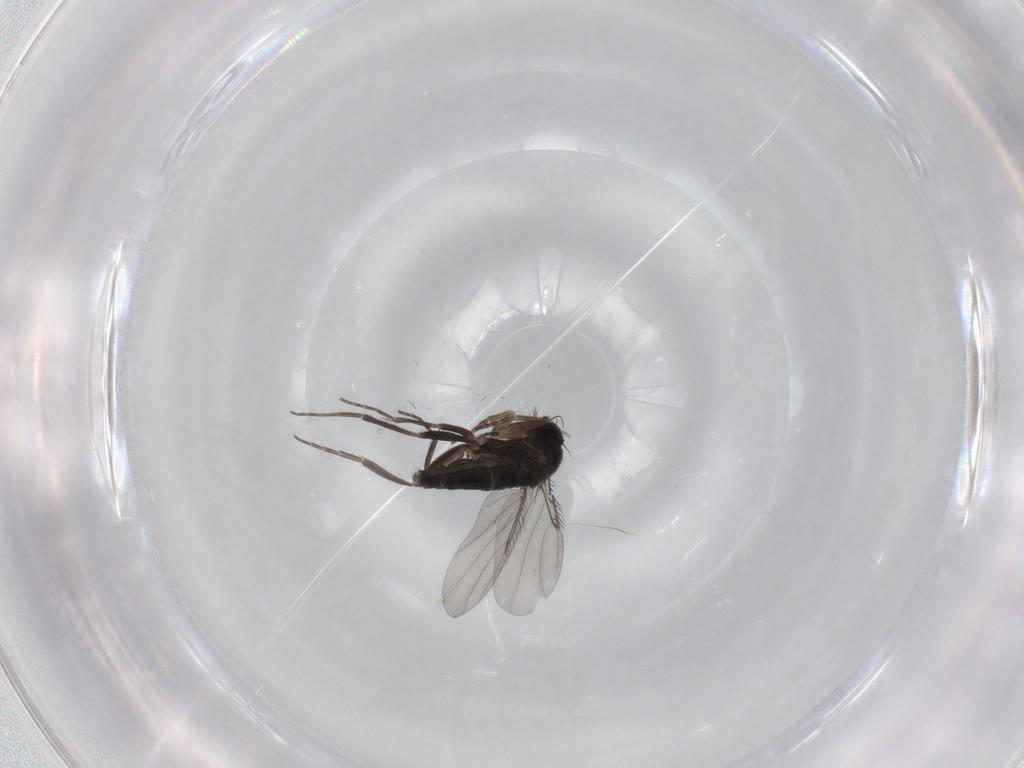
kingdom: Animalia
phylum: Arthropoda
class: Insecta
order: Diptera
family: Phoridae
